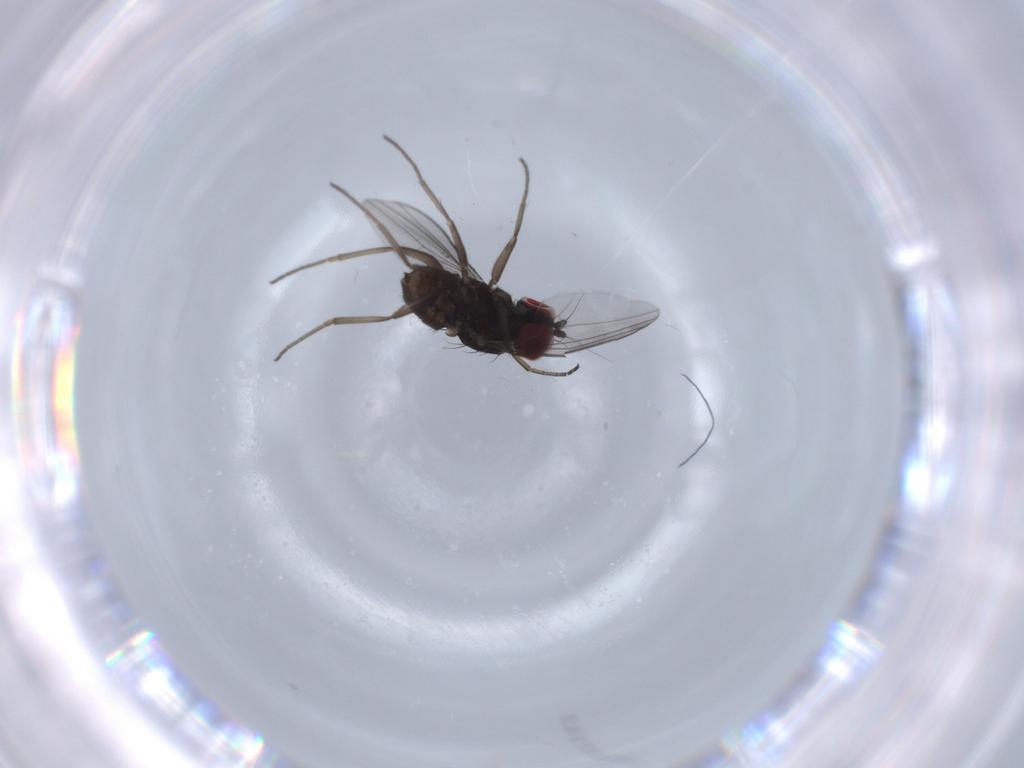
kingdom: Animalia
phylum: Arthropoda
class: Insecta
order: Diptera
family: Dolichopodidae
